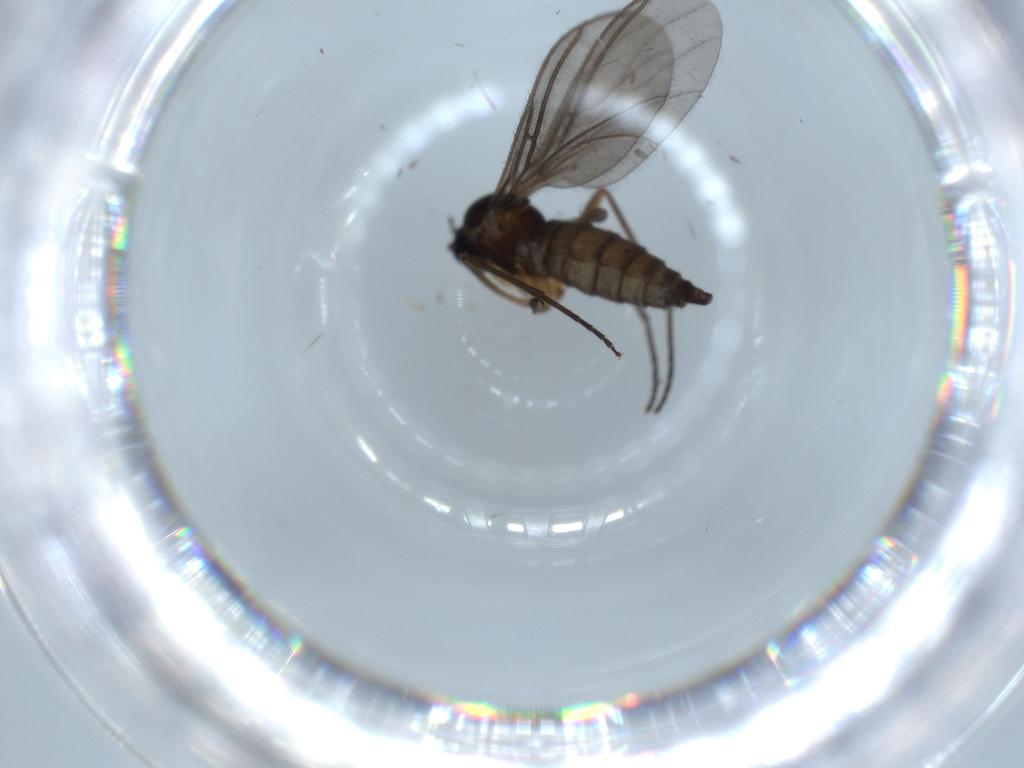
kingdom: Animalia
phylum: Arthropoda
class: Insecta
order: Diptera
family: Sciaridae
